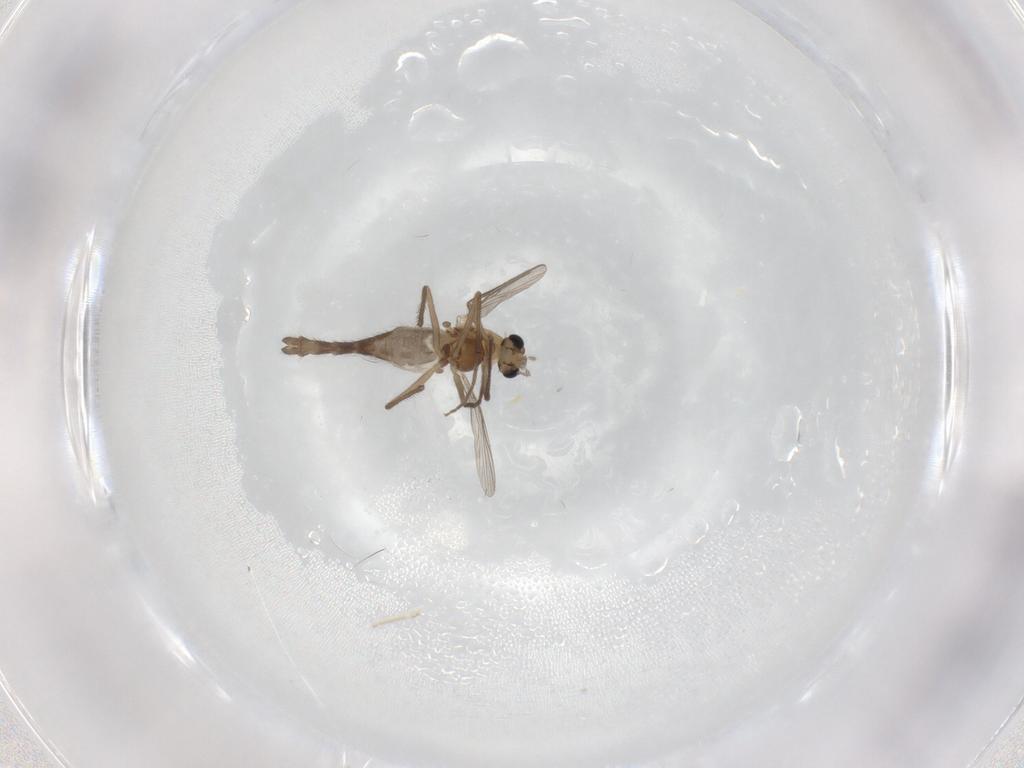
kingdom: Animalia
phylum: Arthropoda
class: Insecta
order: Diptera
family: Chironomidae
